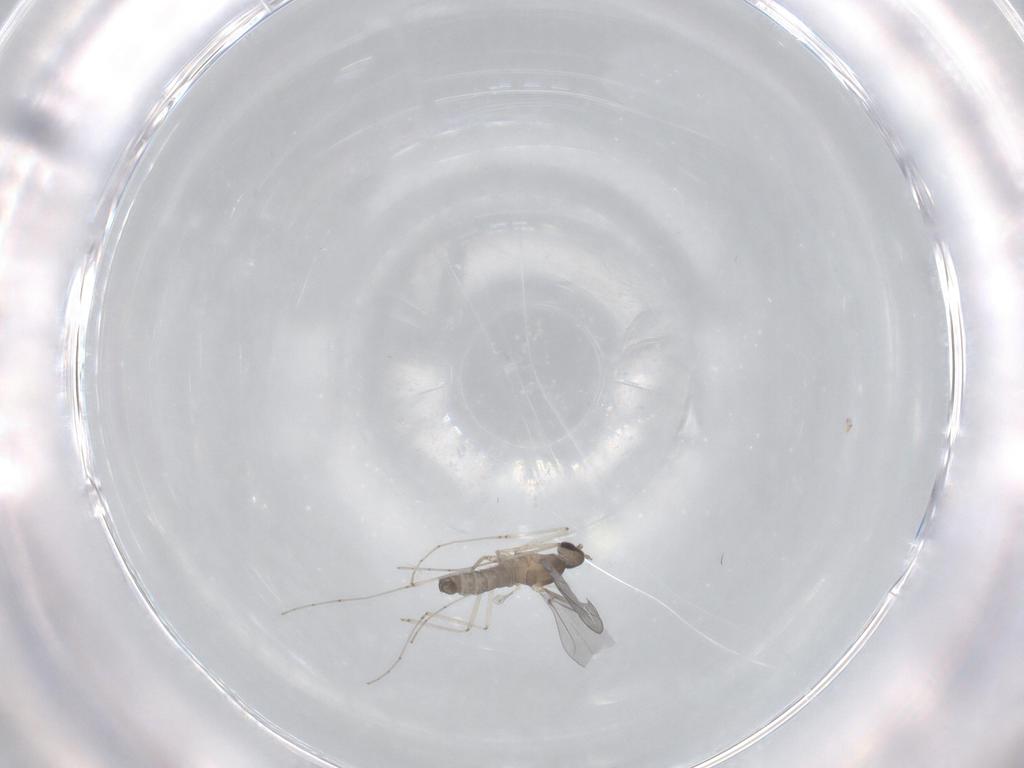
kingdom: Animalia
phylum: Arthropoda
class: Insecta
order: Diptera
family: Cecidomyiidae
